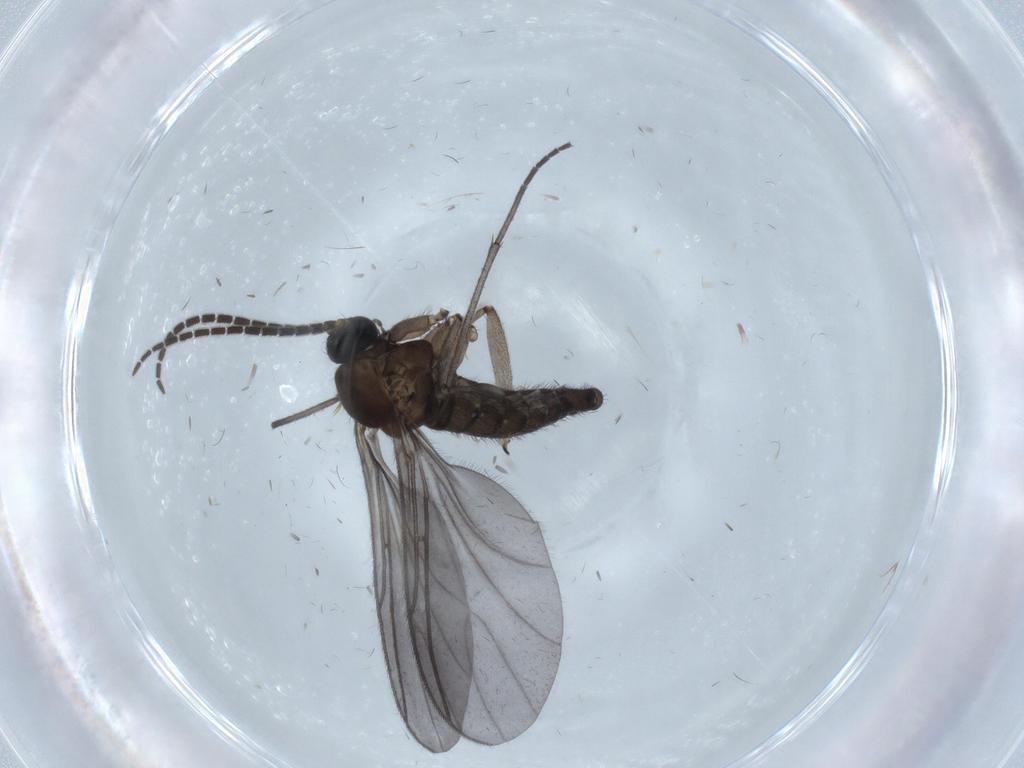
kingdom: Animalia
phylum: Arthropoda
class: Insecta
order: Diptera
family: Sciaridae
